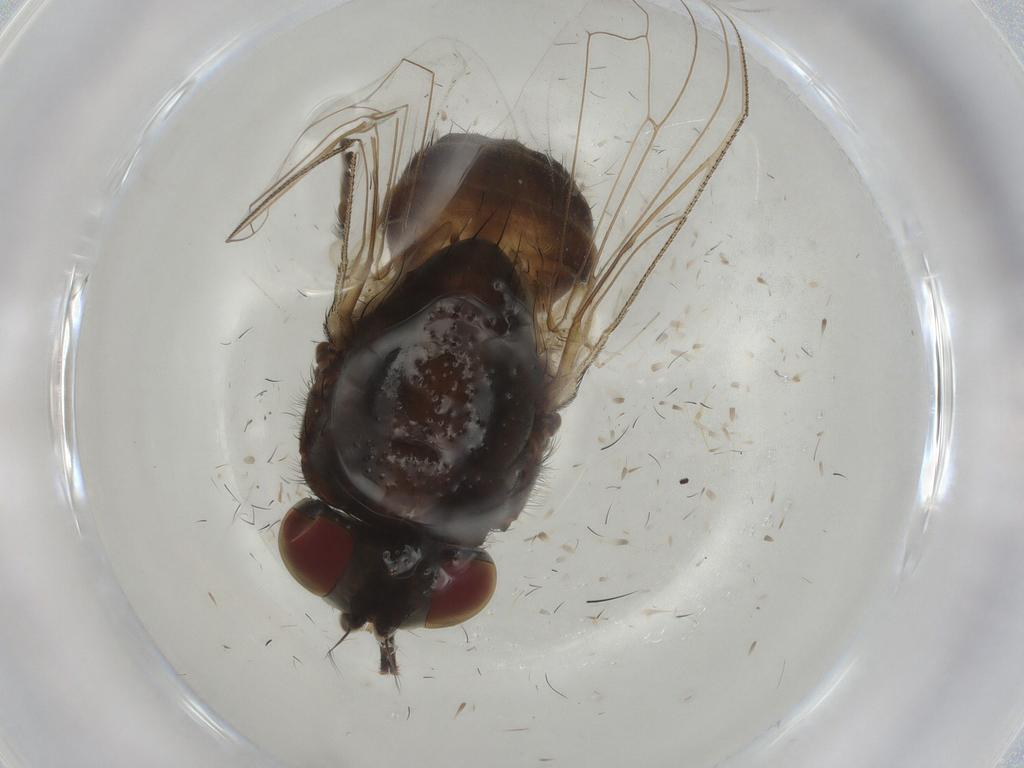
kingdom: Animalia
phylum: Arthropoda
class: Insecta
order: Diptera
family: Muscidae
